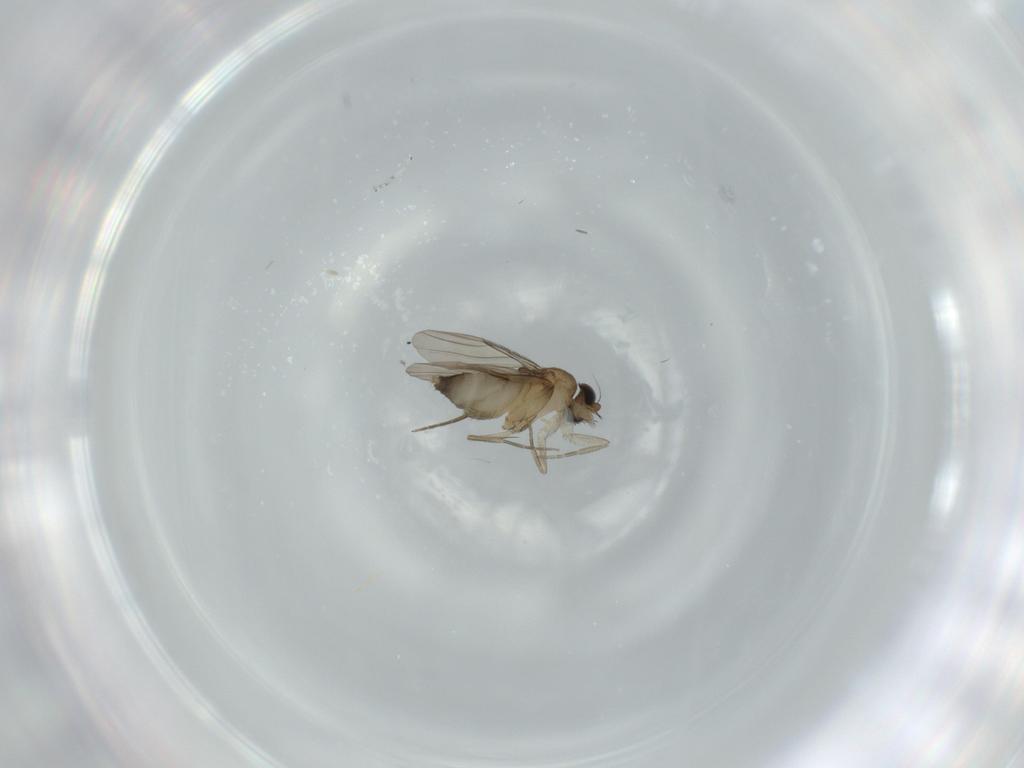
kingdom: Animalia
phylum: Arthropoda
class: Insecta
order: Diptera
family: Phoridae
